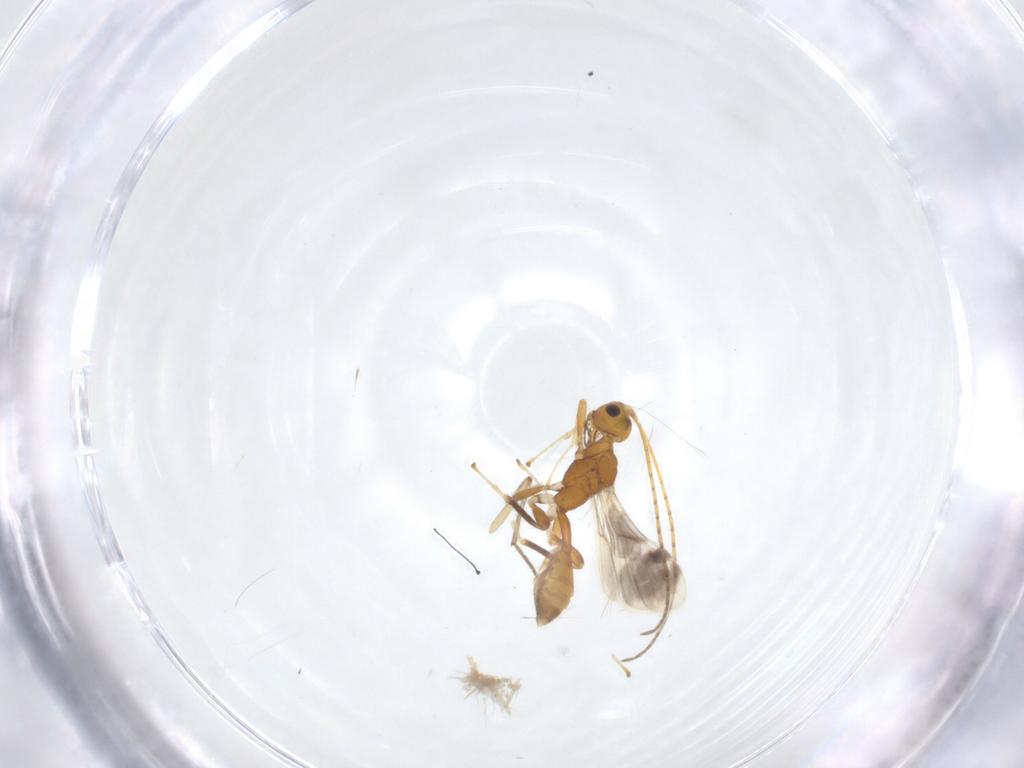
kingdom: Animalia
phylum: Arthropoda
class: Insecta
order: Hymenoptera
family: Braconidae
